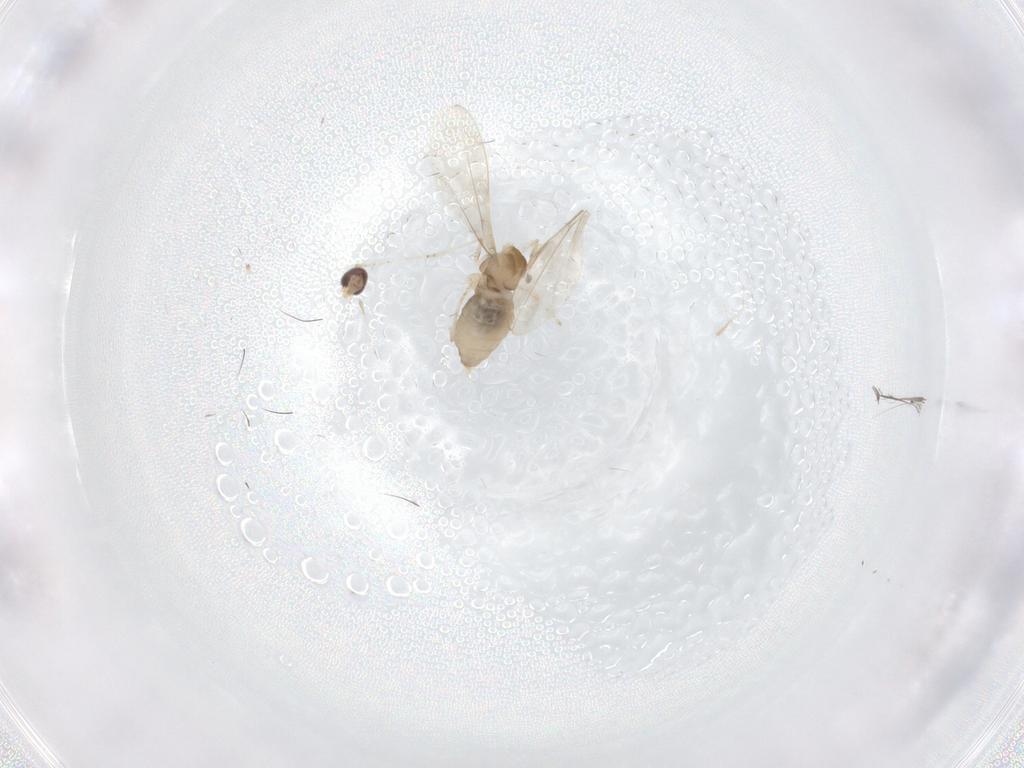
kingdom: Animalia
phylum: Arthropoda
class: Insecta
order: Diptera
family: Cecidomyiidae
